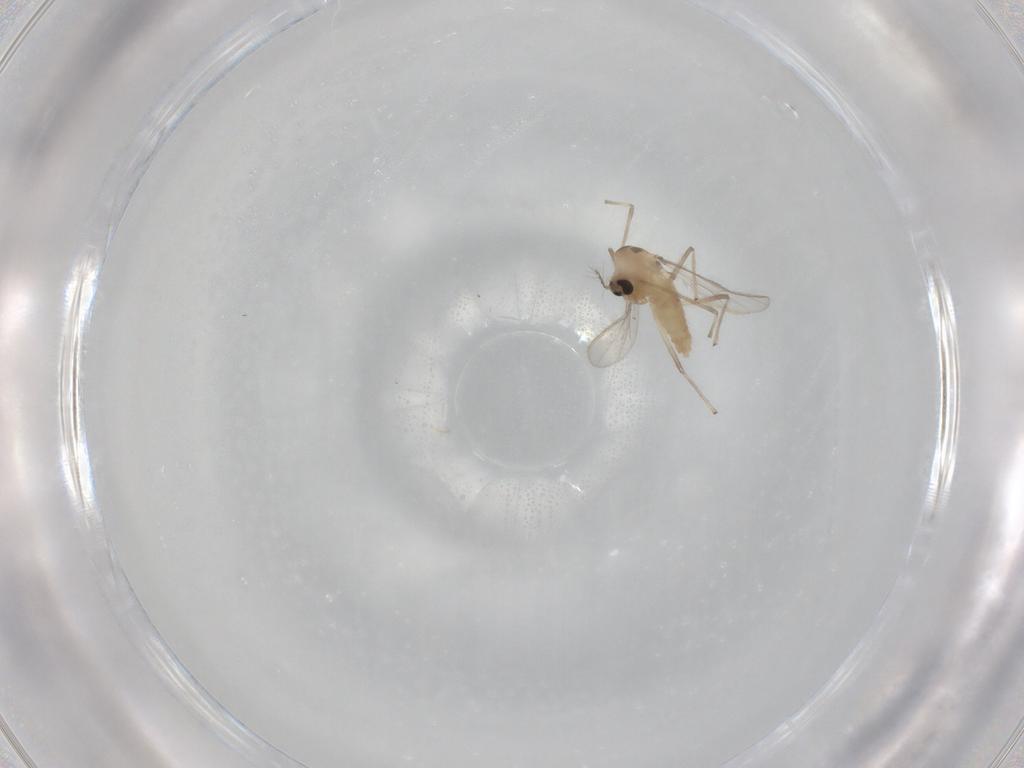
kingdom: Animalia
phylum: Arthropoda
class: Insecta
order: Diptera
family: Chironomidae
